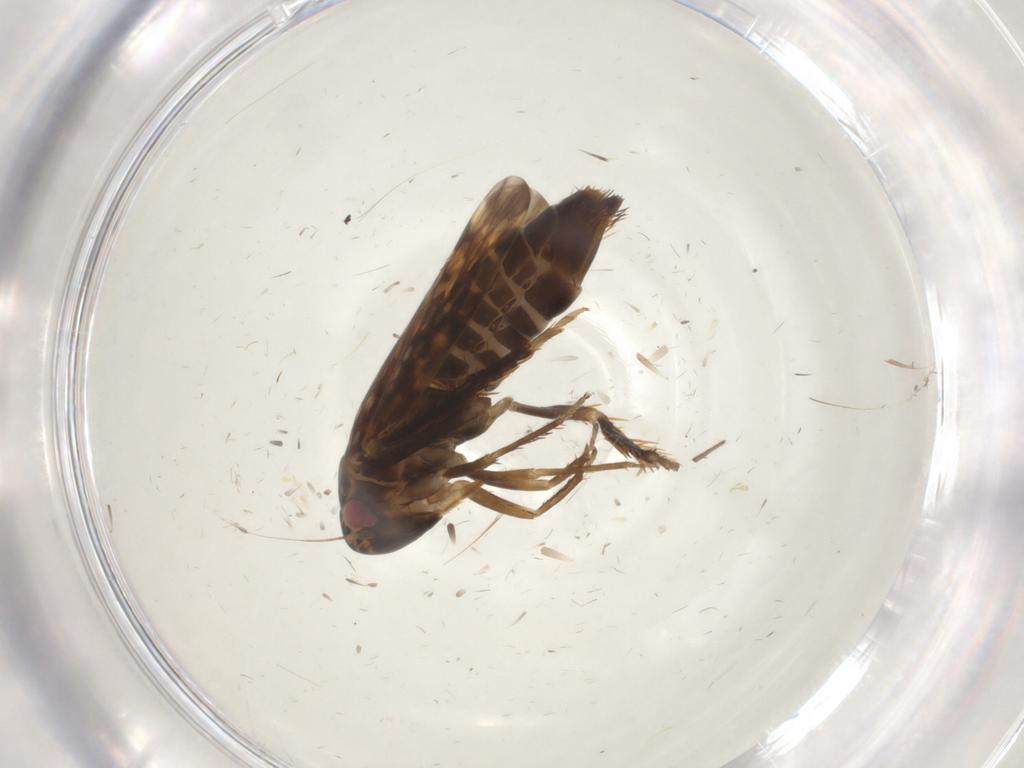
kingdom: Animalia
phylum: Arthropoda
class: Insecta
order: Hemiptera
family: Cicadellidae
